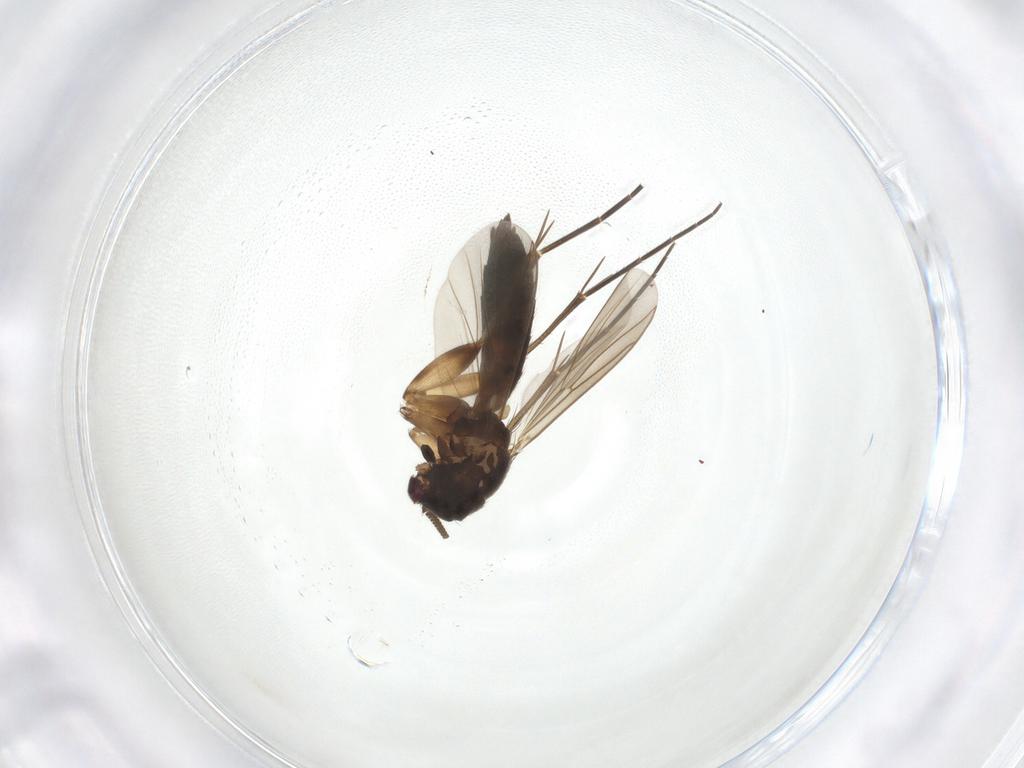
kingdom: Animalia
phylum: Arthropoda
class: Insecta
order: Diptera
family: Mycetophilidae
